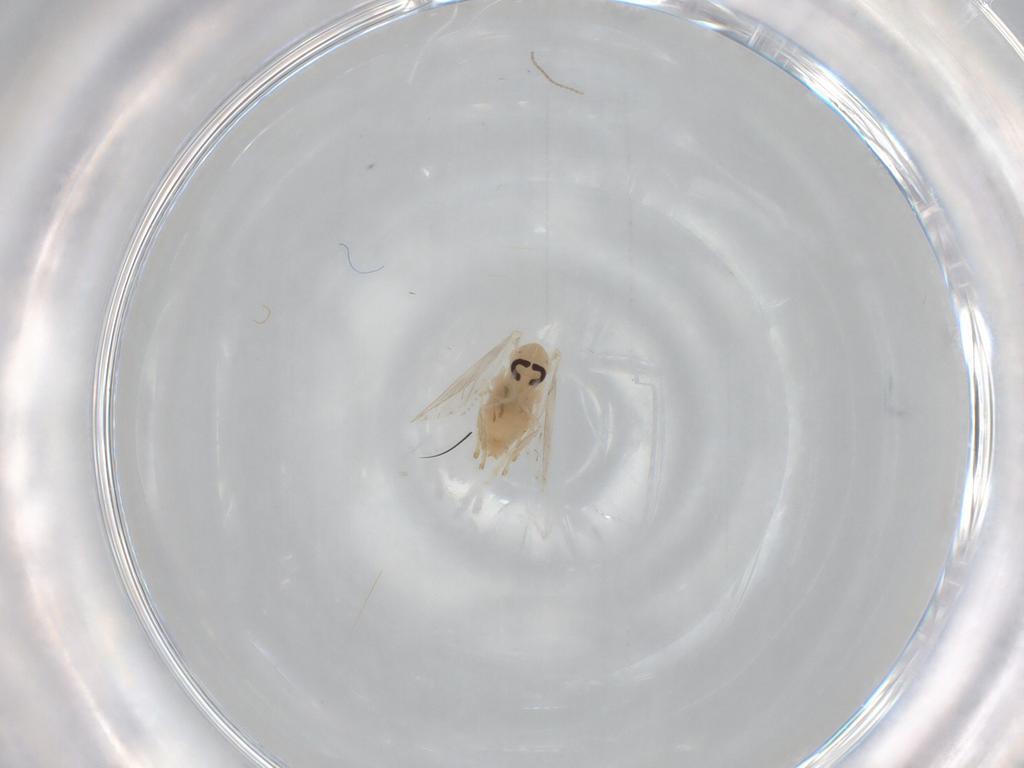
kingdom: Animalia
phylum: Arthropoda
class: Insecta
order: Diptera
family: Psychodidae
